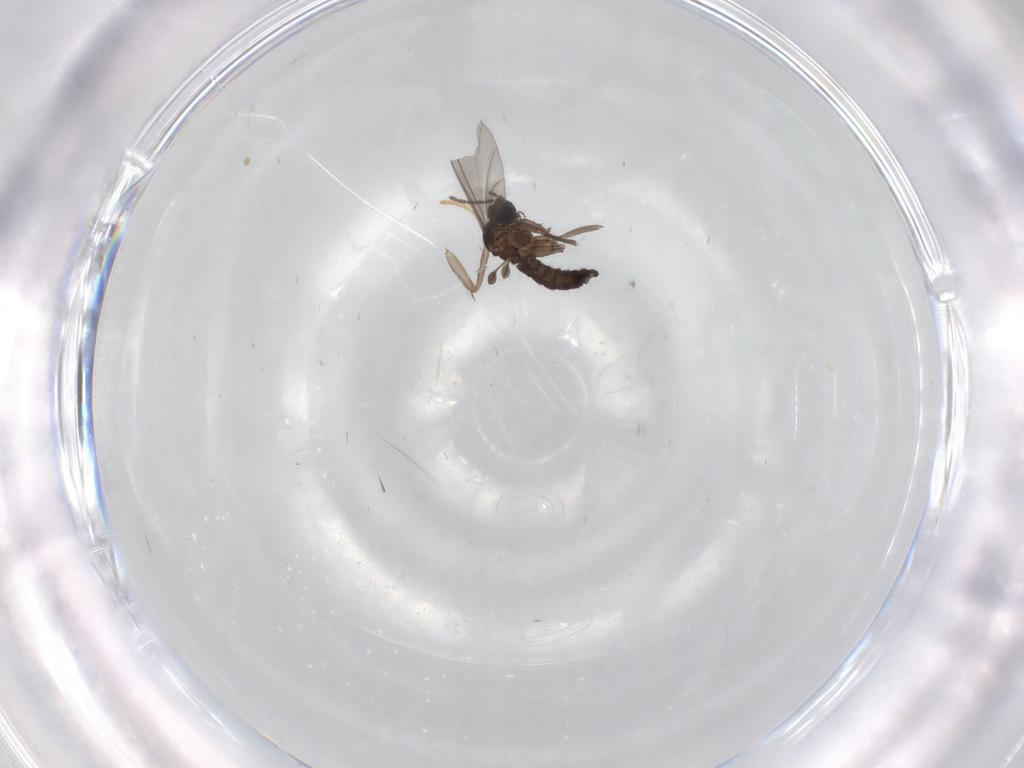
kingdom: Animalia
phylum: Arthropoda
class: Insecta
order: Diptera
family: Sciaridae
